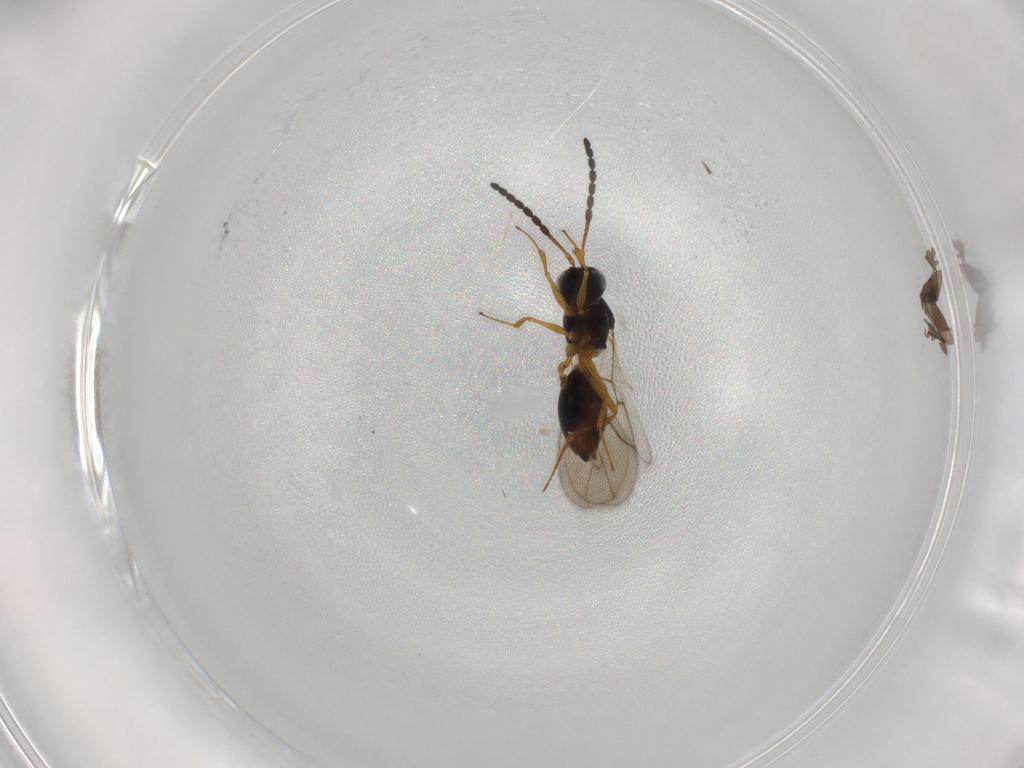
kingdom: Animalia
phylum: Arthropoda
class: Insecta
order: Hymenoptera
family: Figitidae
